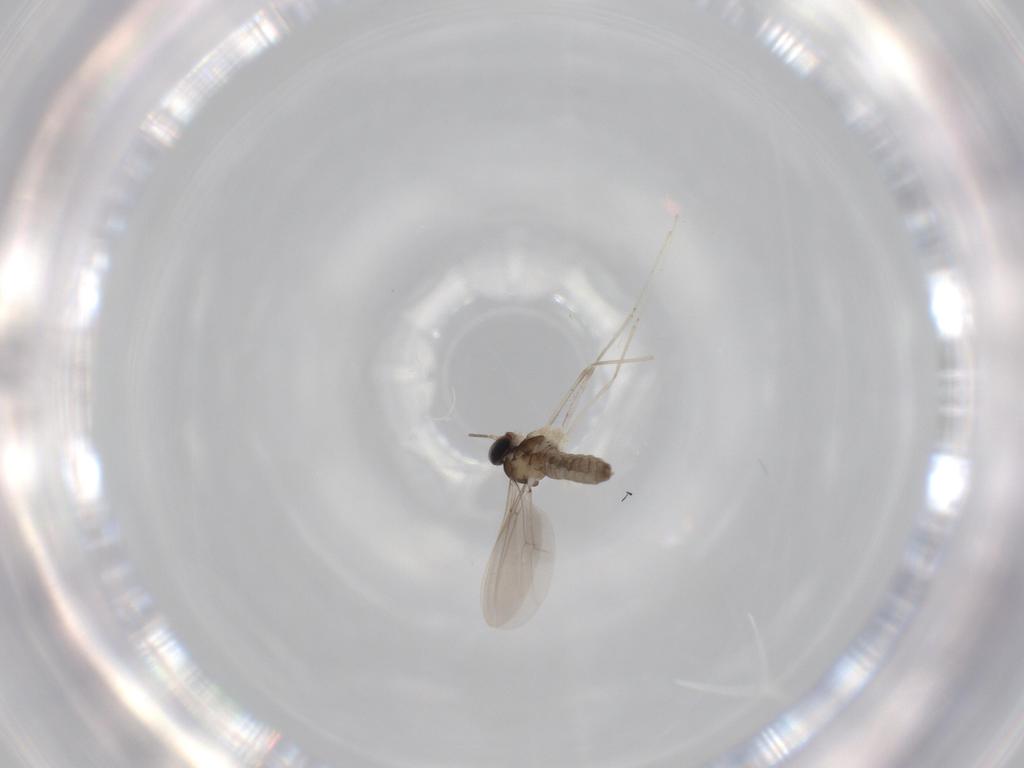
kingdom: Animalia
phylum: Arthropoda
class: Insecta
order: Diptera
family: Cecidomyiidae
